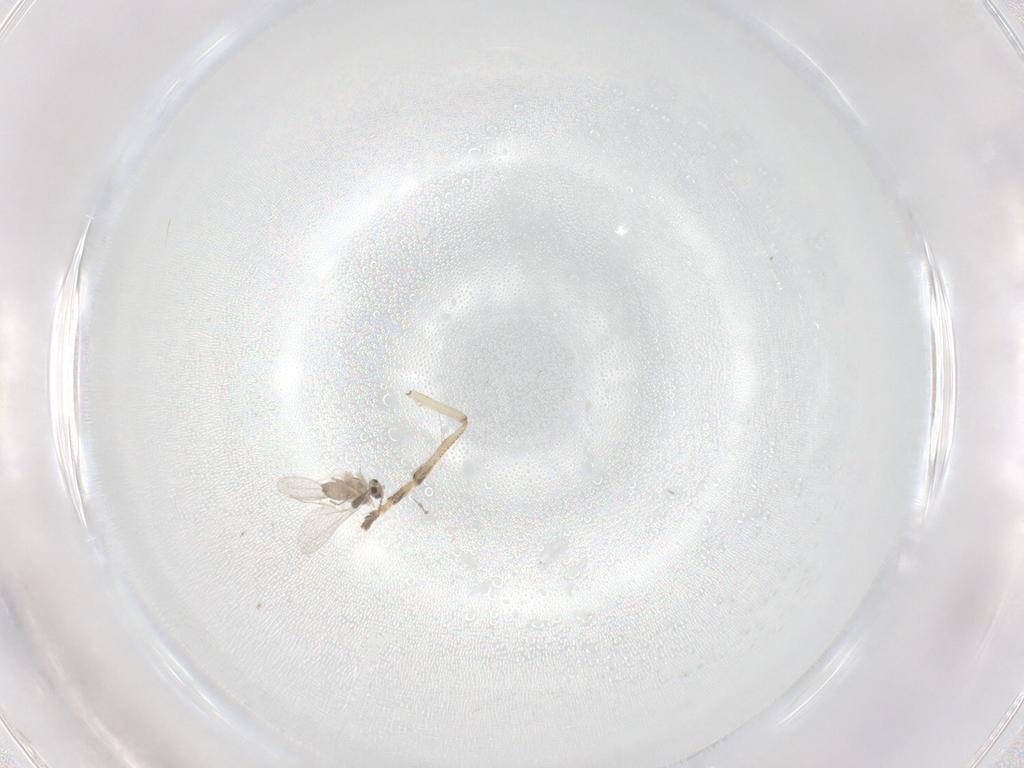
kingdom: Animalia
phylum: Arthropoda
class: Insecta
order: Diptera
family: Psychodidae
